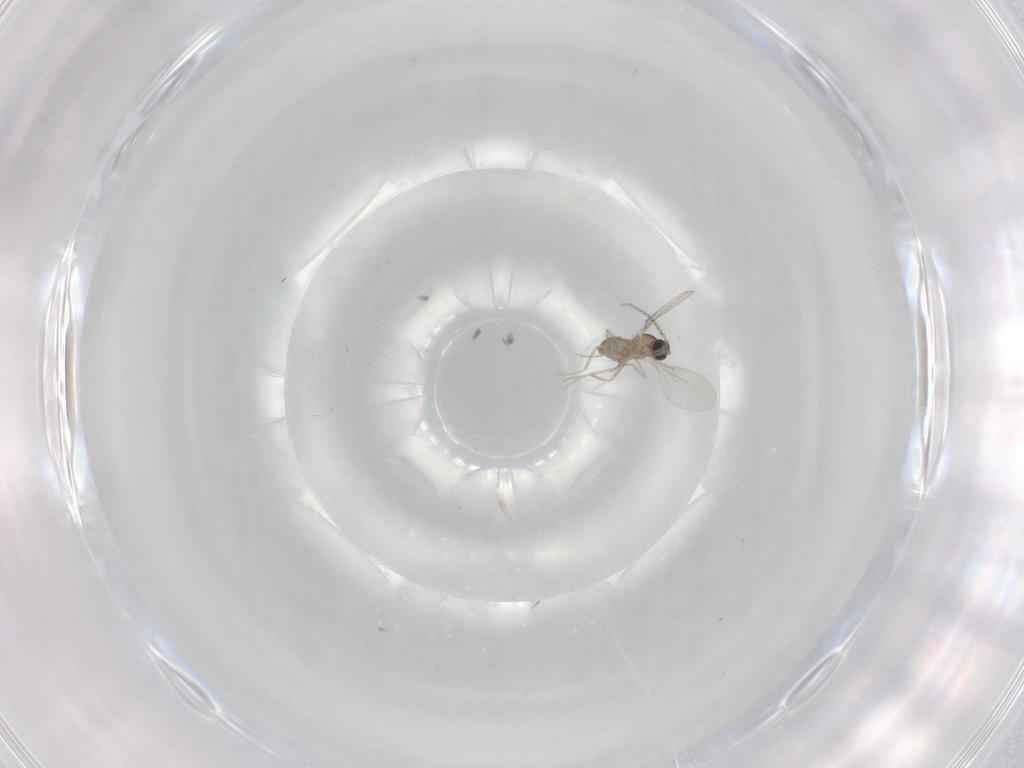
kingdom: Animalia
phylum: Arthropoda
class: Insecta
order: Diptera
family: Cecidomyiidae
